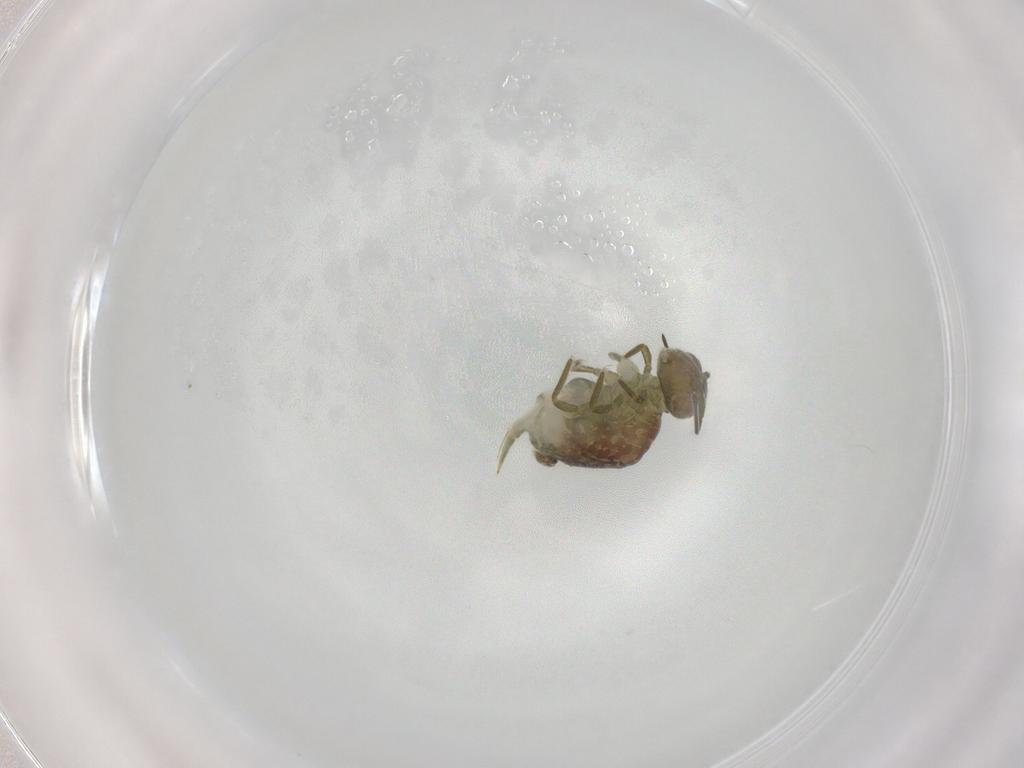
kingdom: Animalia
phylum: Arthropoda
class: Collembola
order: Symphypleona
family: Sminthuridae
